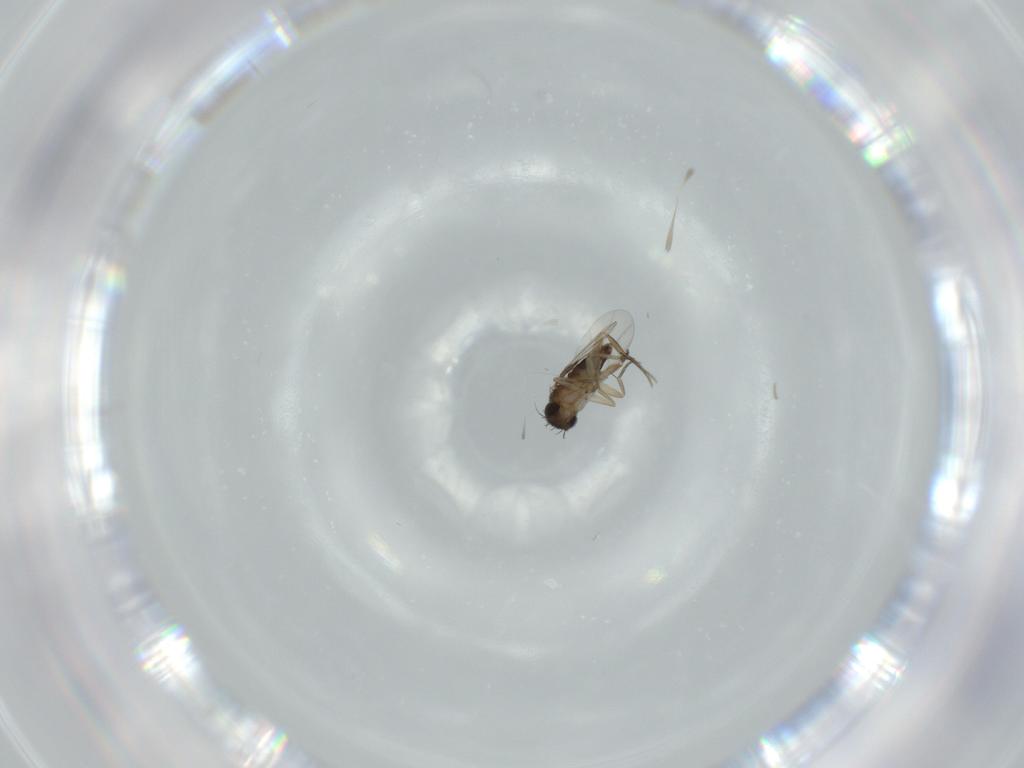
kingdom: Animalia
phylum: Arthropoda
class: Insecta
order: Diptera
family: Phoridae
